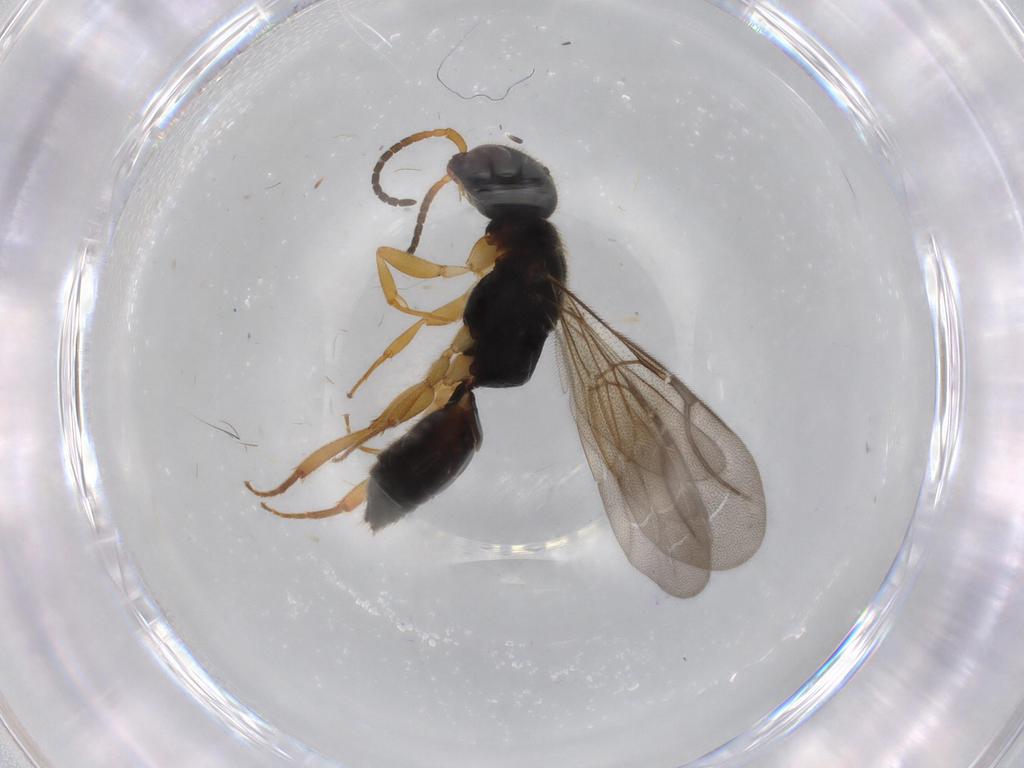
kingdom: Animalia
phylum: Arthropoda
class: Insecta
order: Hymenoptera
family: Bethylidae
